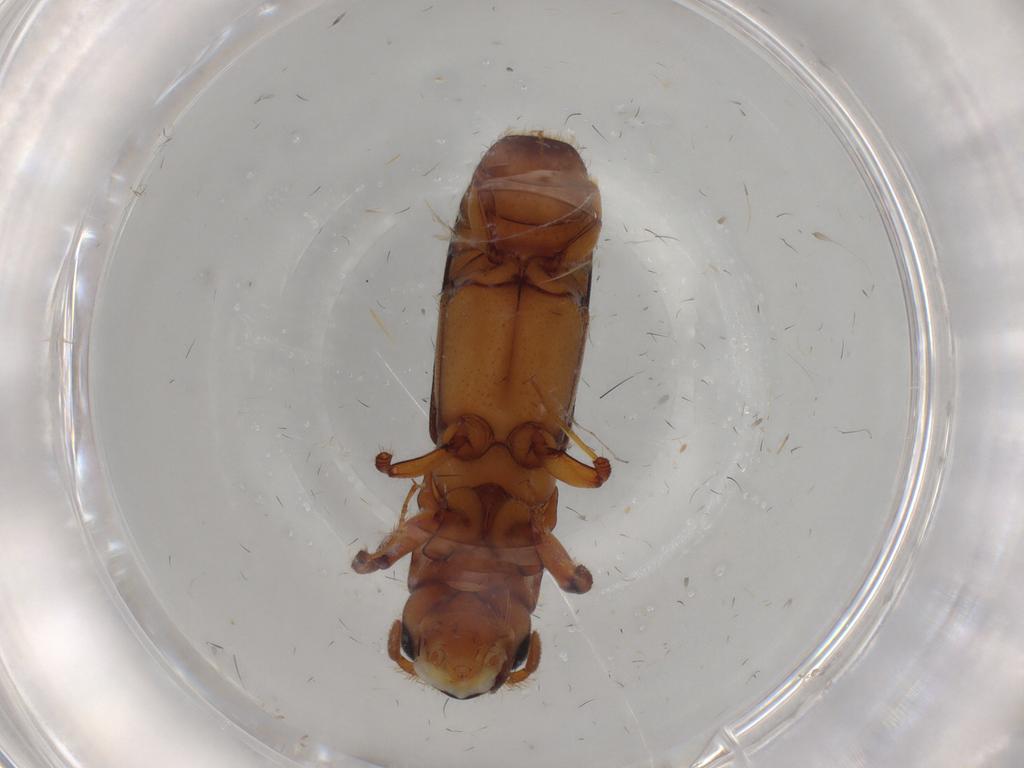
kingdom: Animalia
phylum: Arthropoda
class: Insecta
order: Coleoptera
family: Curculionidae
